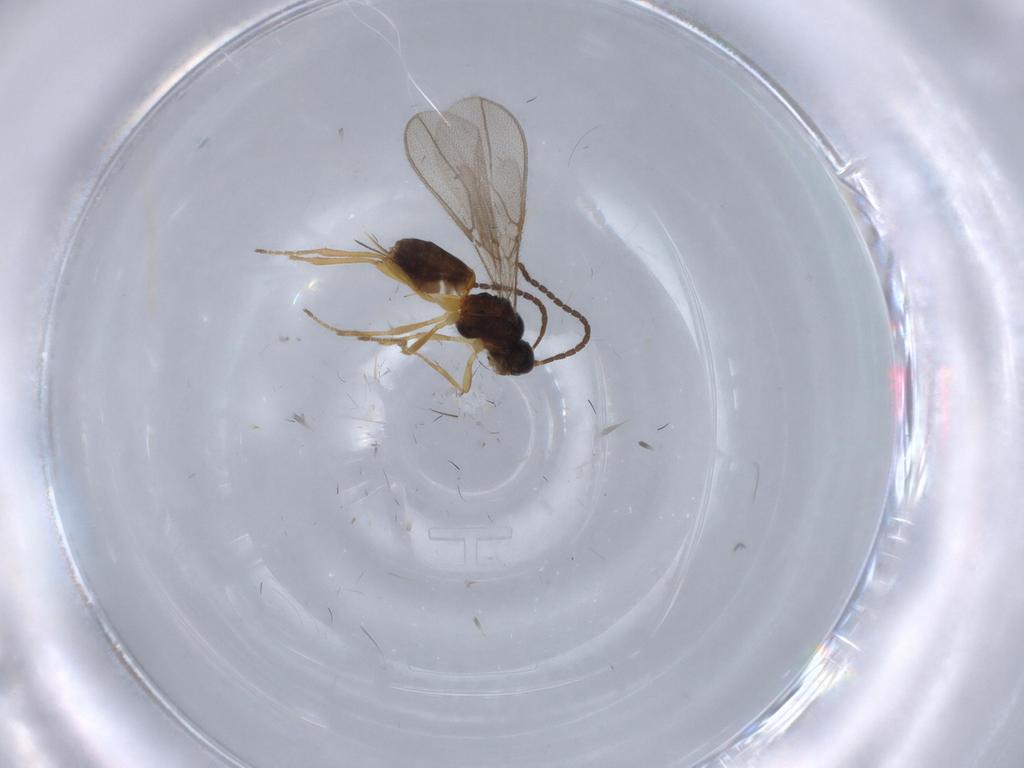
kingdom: Animalia
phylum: Arthropoda
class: Insecta
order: Hymenoptera
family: Braconidae
